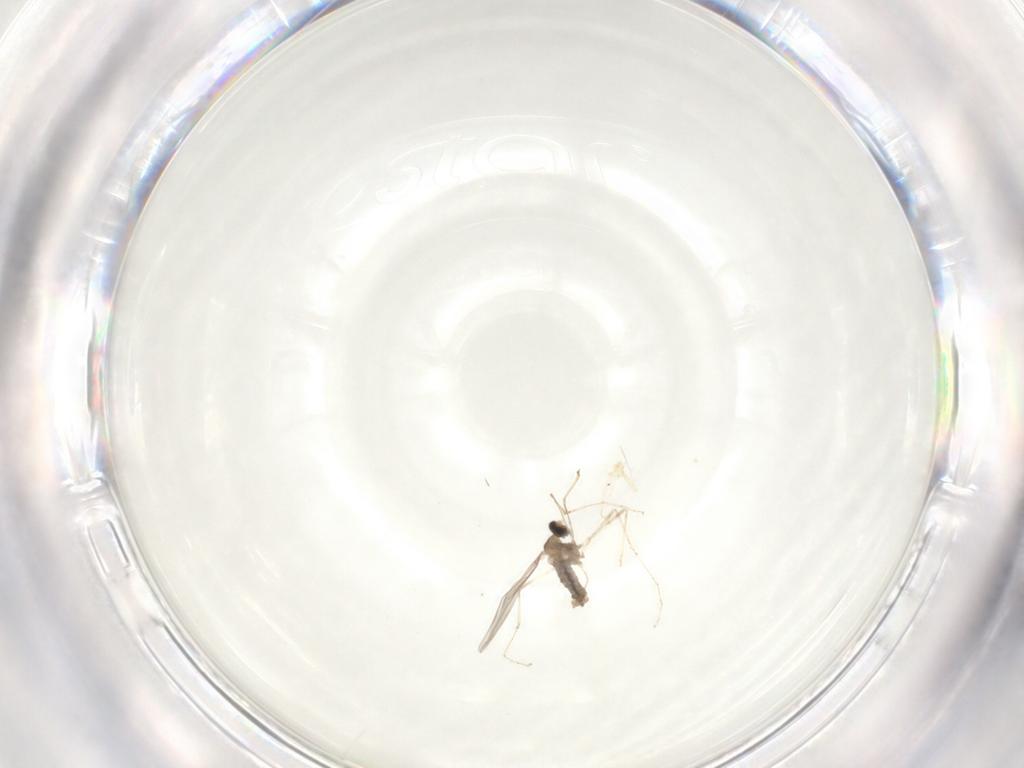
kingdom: Animalia
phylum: Arthropoda
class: Insecta
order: Diptera
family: Cecidomyiidae
